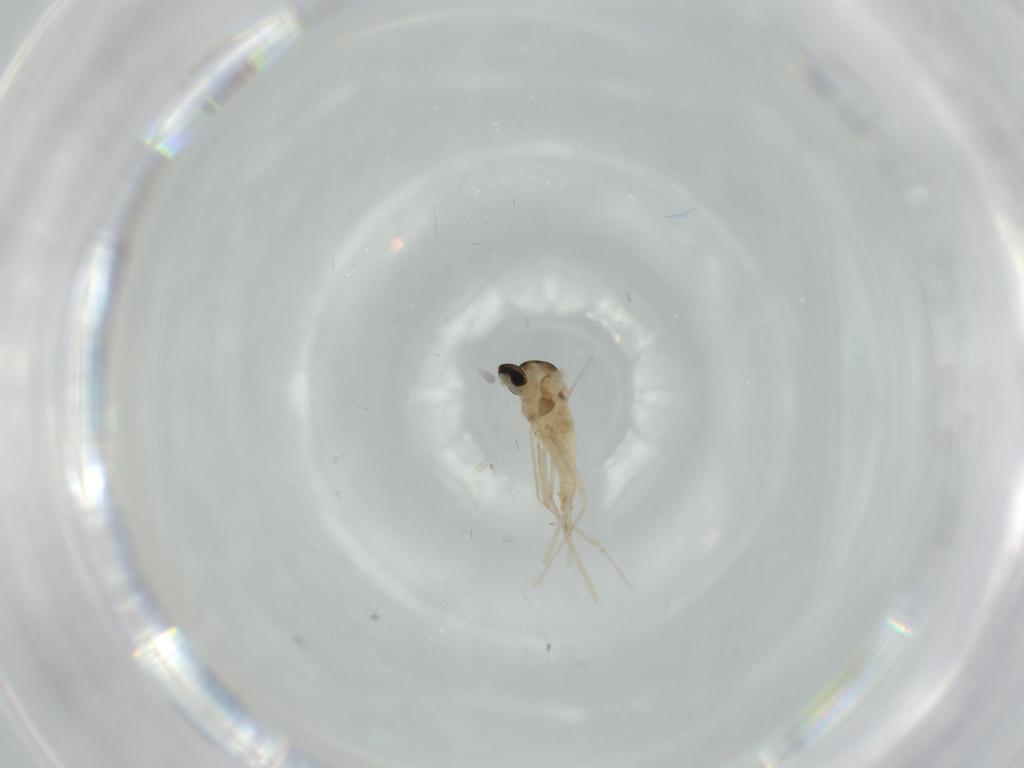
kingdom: Animalia
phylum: Arthropoda
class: Insecta
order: Diptera
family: Cecidomyiidae
